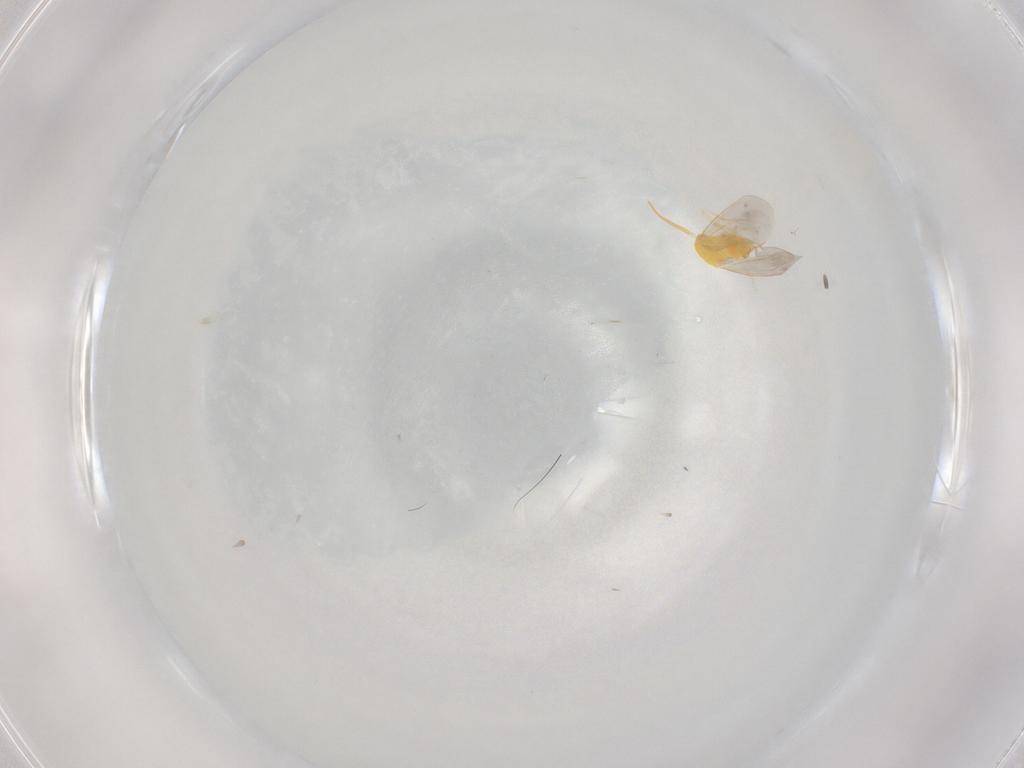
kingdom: Animalia
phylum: Arthropoda
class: Insecta
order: Hemiptera
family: Aleyrodidae
